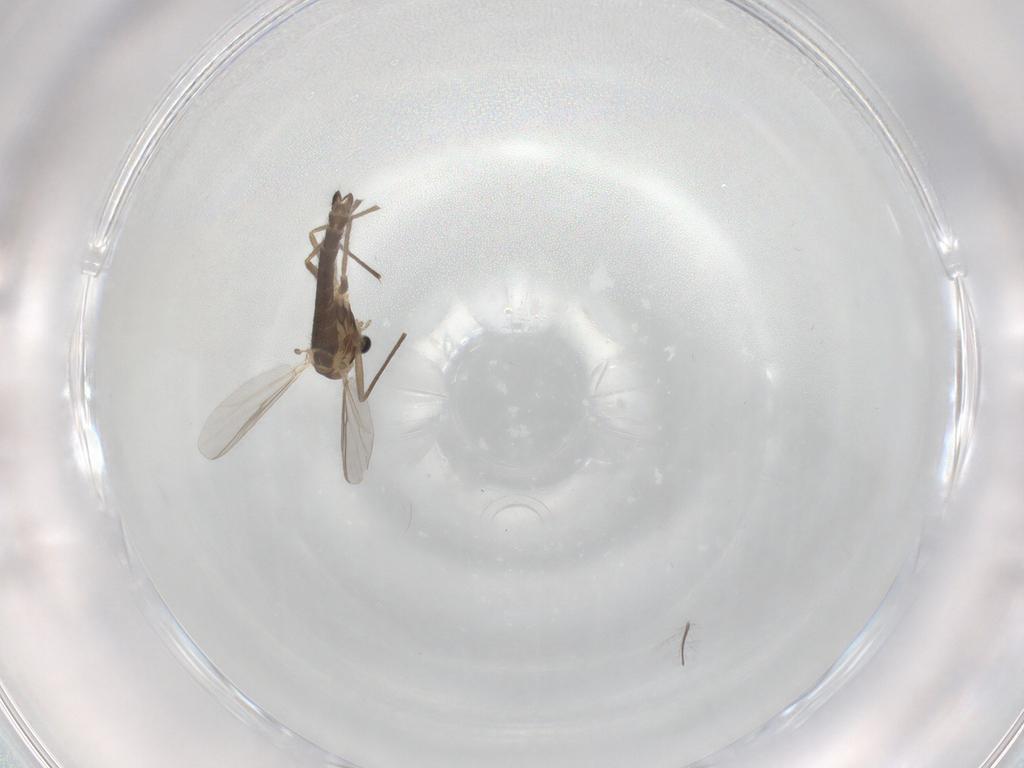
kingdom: Animalia
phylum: Arthropoda
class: Insecta
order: Diptera
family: Chironomidae
